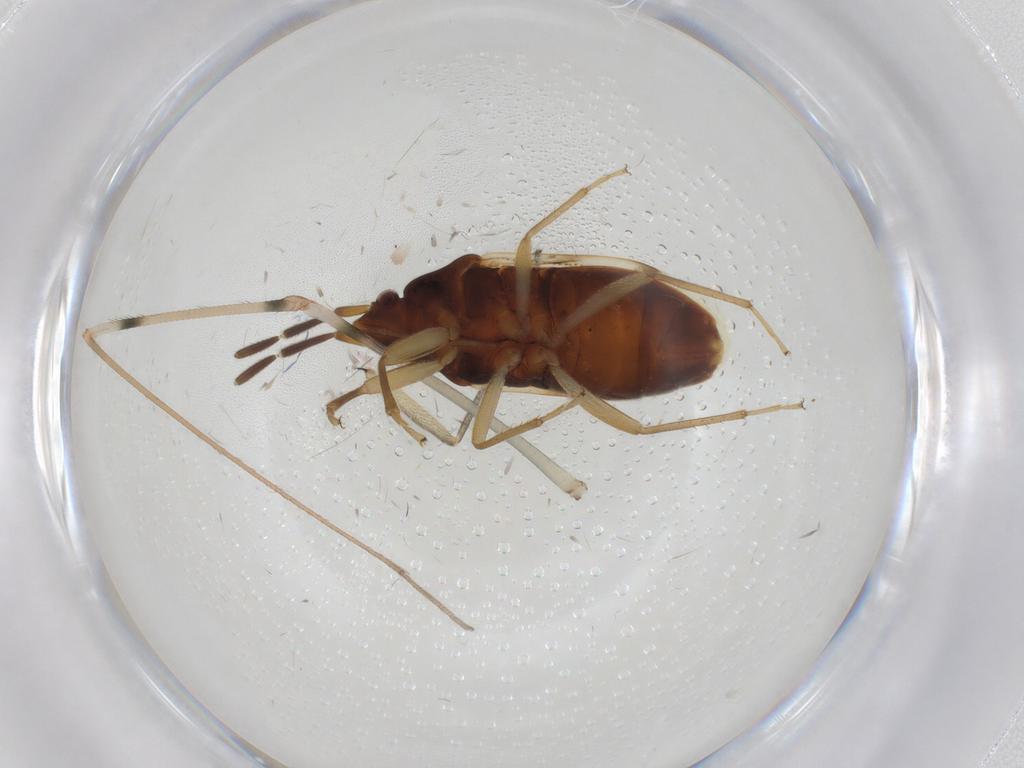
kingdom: Animalia
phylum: Arthropoda
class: Insecta
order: Hemiptera
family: Rhyparochromidae
